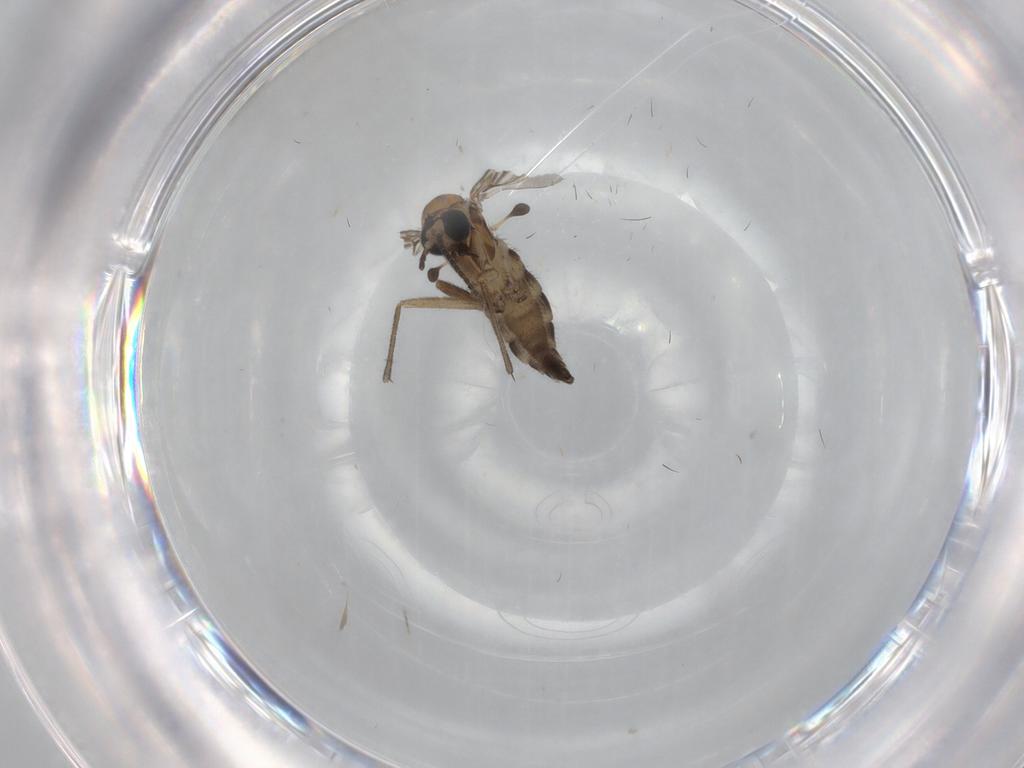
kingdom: Animalia
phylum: Arthropoda
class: Insecta
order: Diptera
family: Sciaridae
